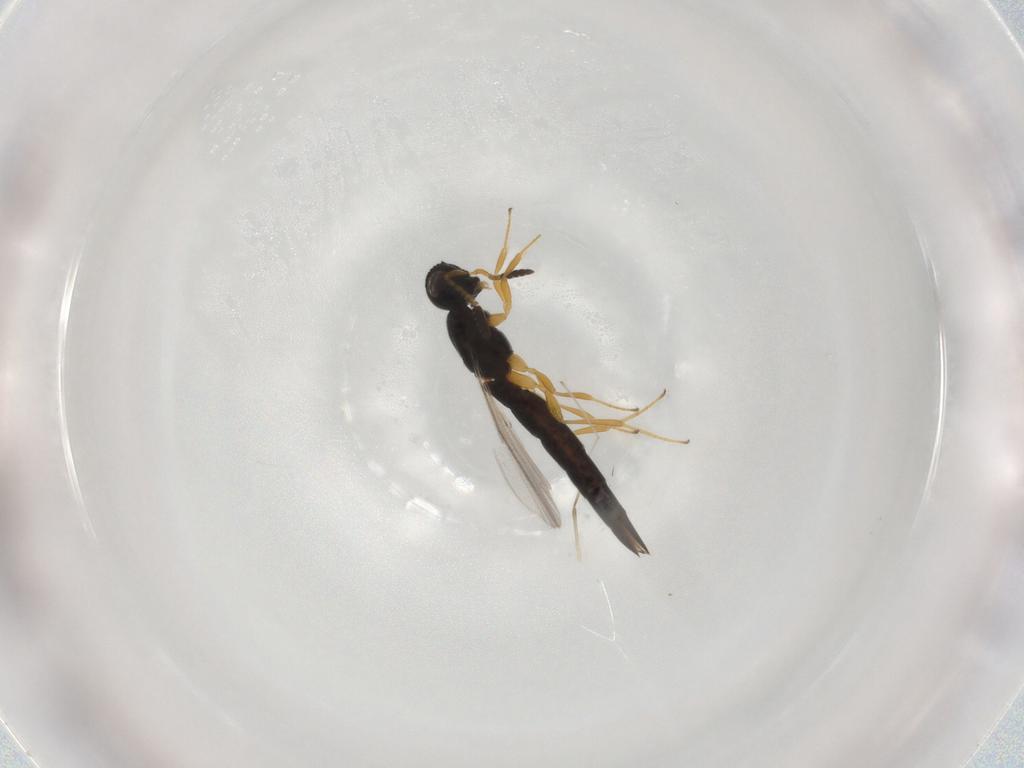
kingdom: Animalia
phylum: Arthropoda
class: Insecta
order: Hymenoptera
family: Scelionidae
